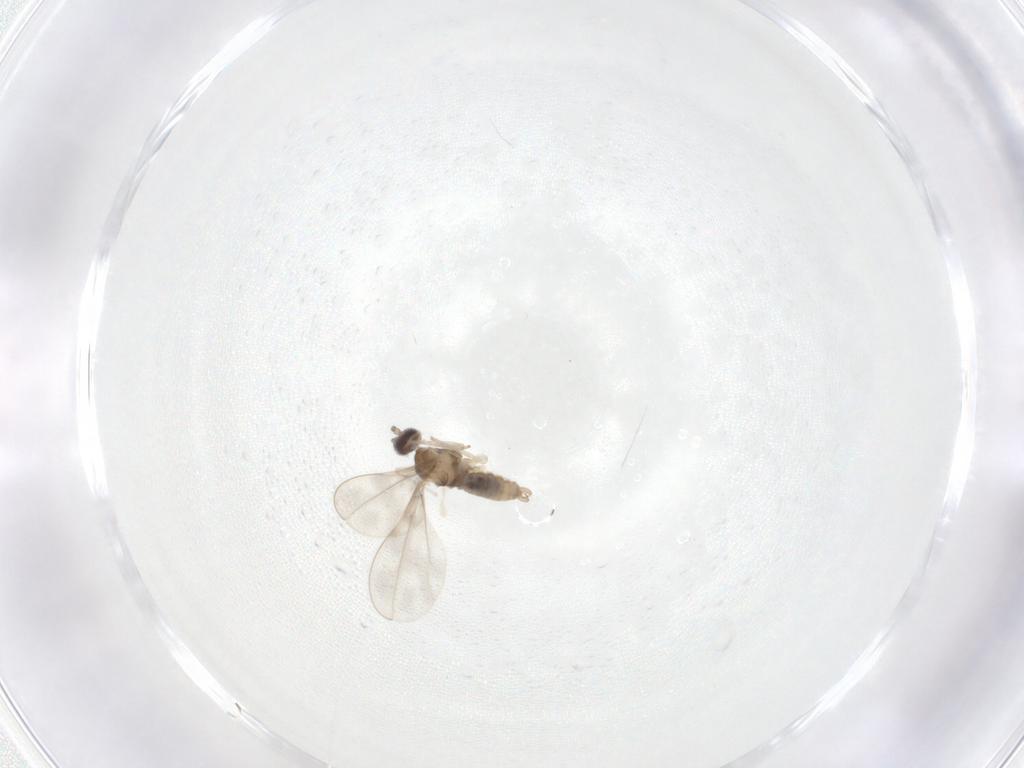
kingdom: Animalia
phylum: Arthropoda
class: Insecta
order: Diptera
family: Cecidomyiidae
